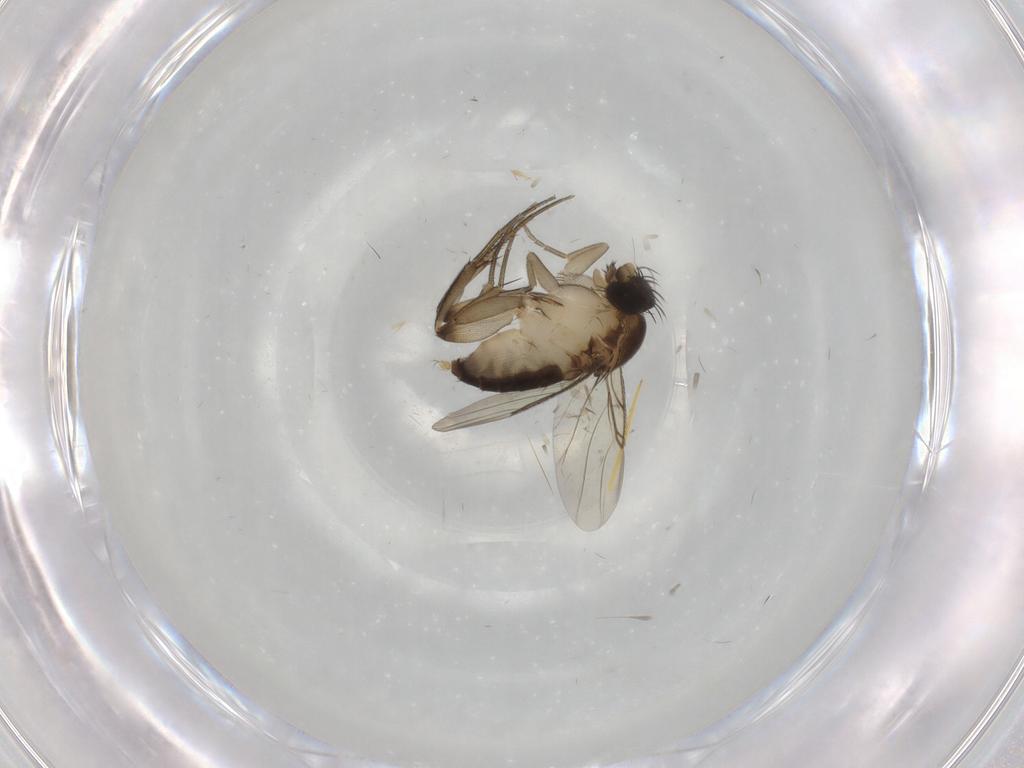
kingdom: Animalia
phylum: Arthropoda
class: Insecta
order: Diptera
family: Phoridae
